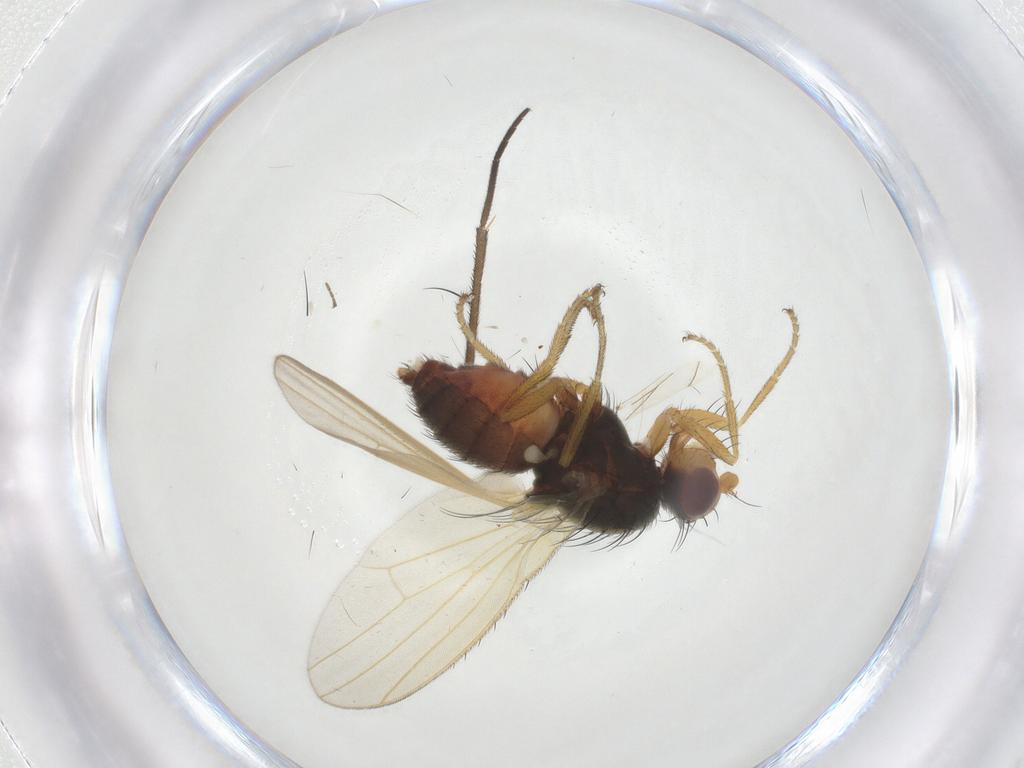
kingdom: Animalia
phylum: Arthropoda
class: Insecta
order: Diptera
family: Heleomyzidae
